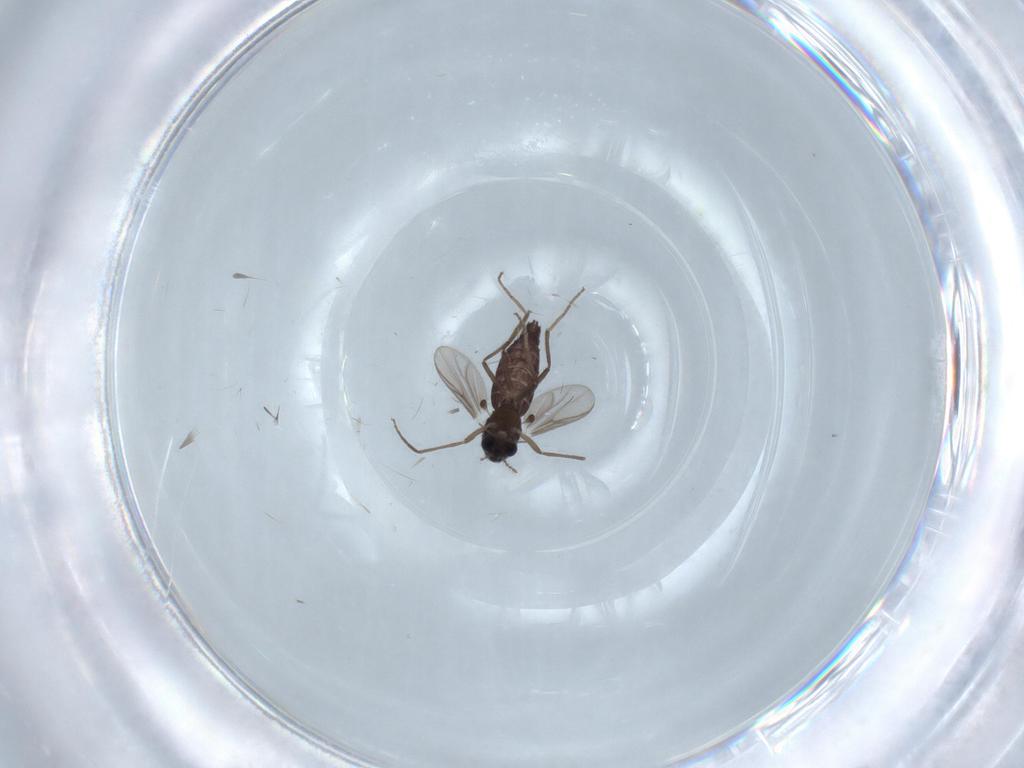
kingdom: Animalia
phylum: Arthropoda
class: Insecta
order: Diptera
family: Chironomidae
